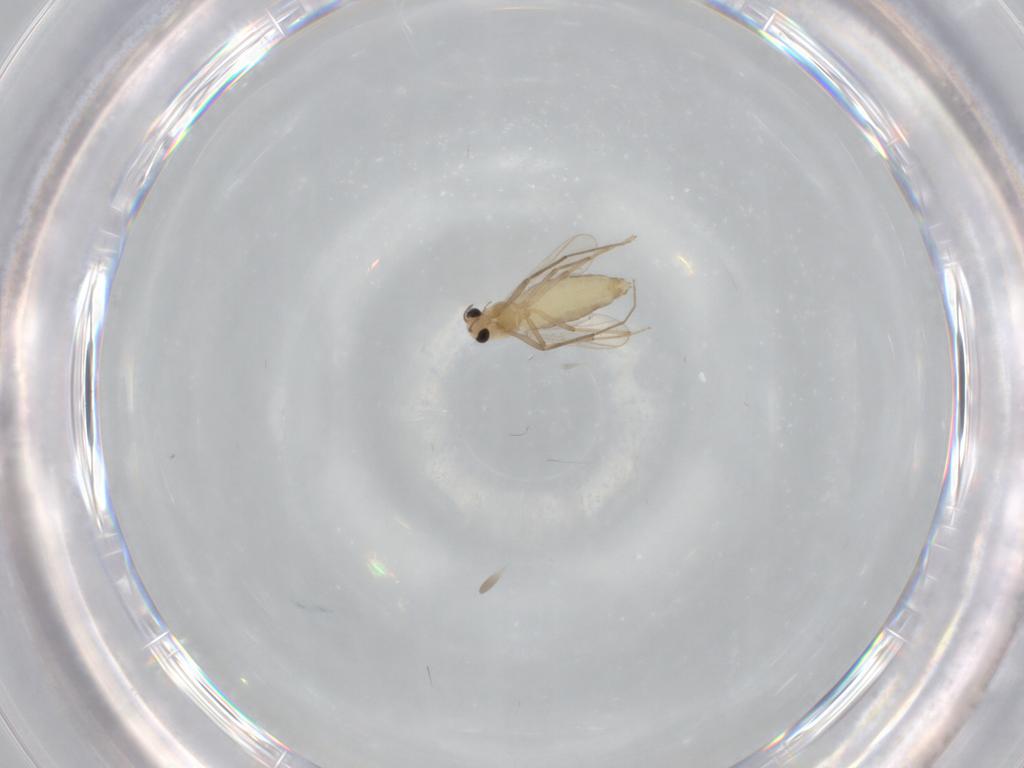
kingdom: Animalia
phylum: Arthropoda
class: Insecta
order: Diptera
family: Chironomidae
